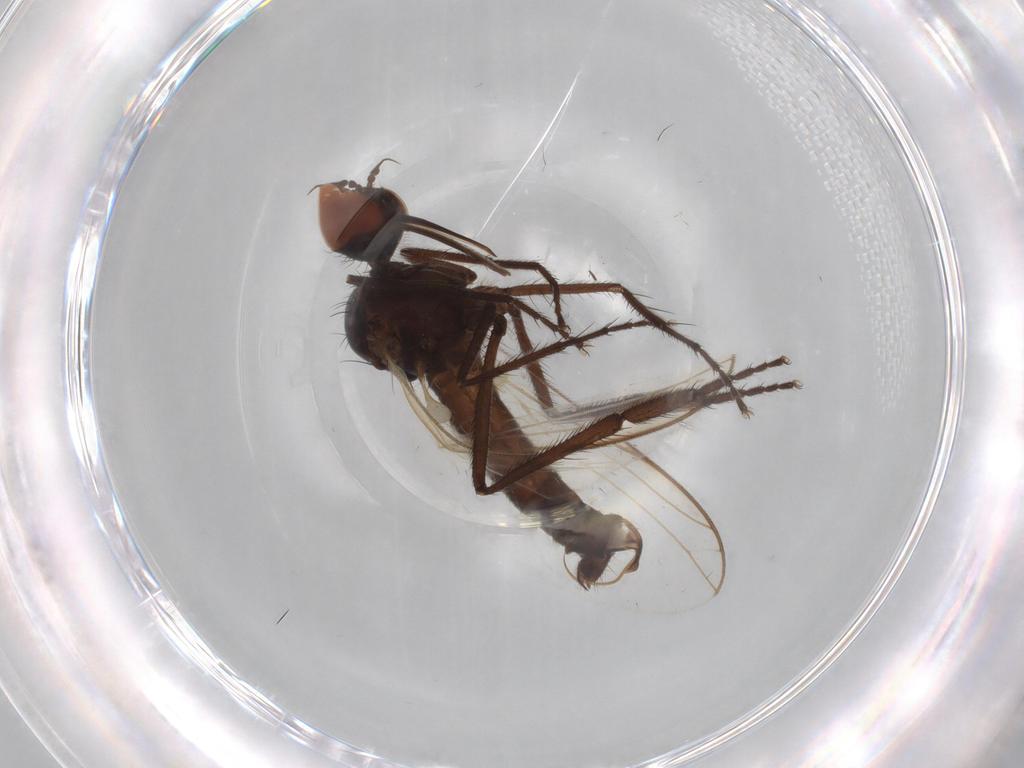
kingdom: Animalia
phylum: Arthropoda
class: Insecta
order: Diptera
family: Empididae
